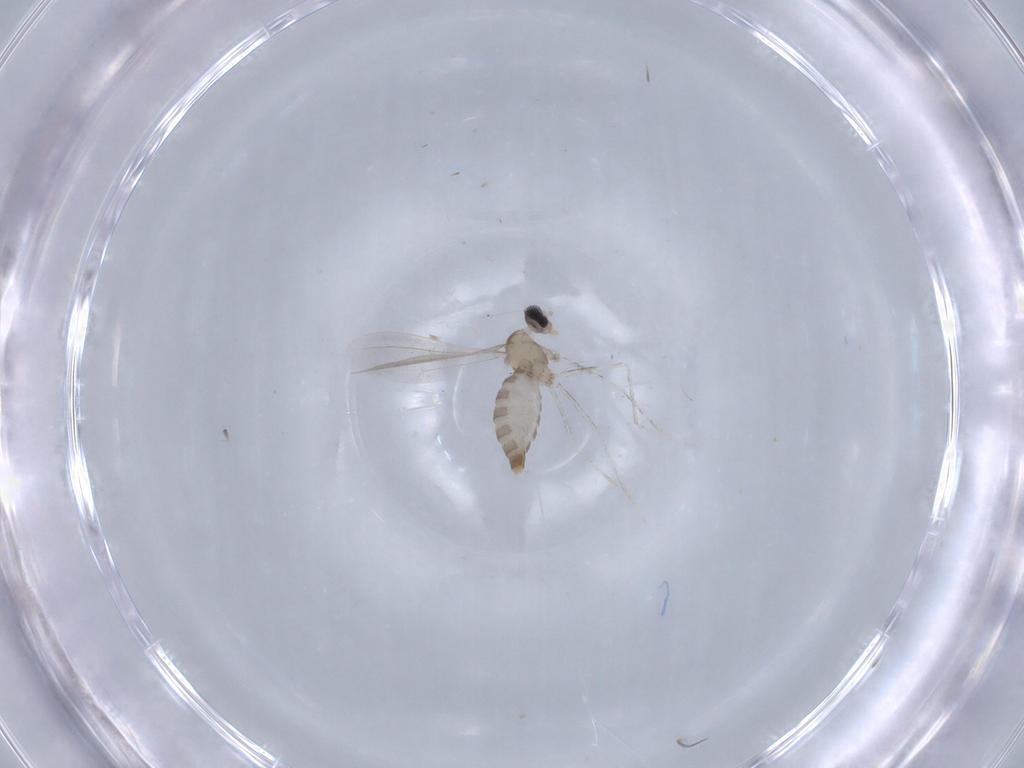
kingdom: Animalia
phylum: Arthropoda
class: Insecta
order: Diptera
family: Cecidomyiidae
